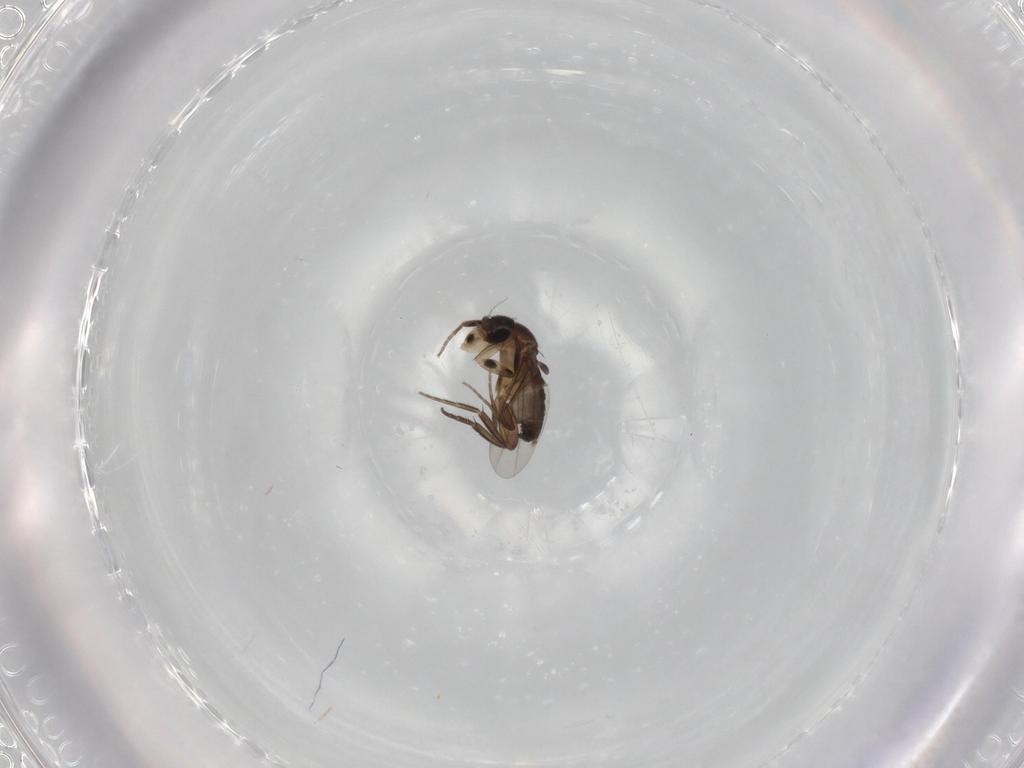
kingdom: Animalia
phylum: Arthropoda
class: Insecta
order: Diptera
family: Phoridae
